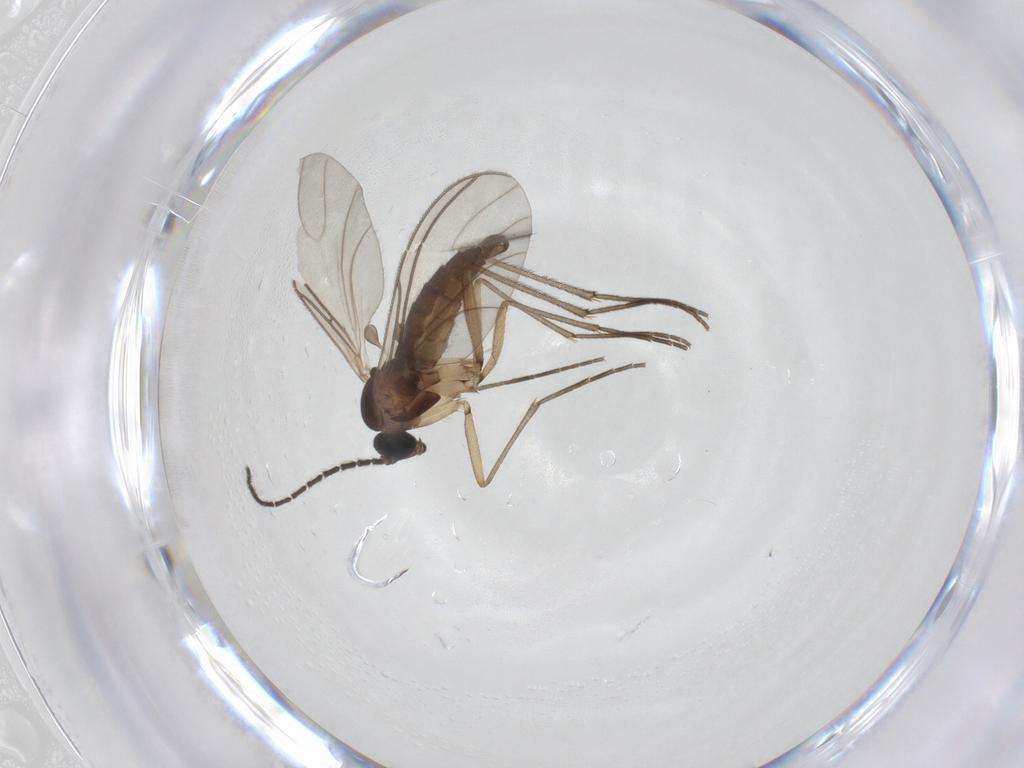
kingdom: Animalia
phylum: Arthropoda
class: Insecta
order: Diptera
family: Sciaridae
